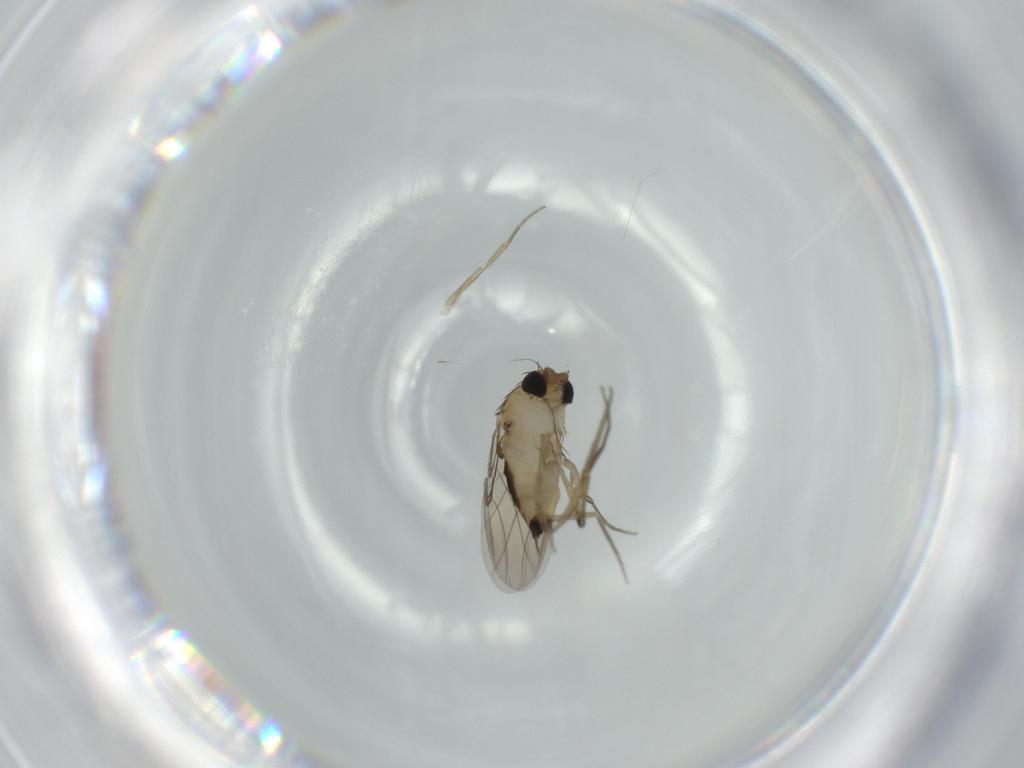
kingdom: Animalia
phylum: Arthropoda
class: Insecta
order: Diptera
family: Phoridae
